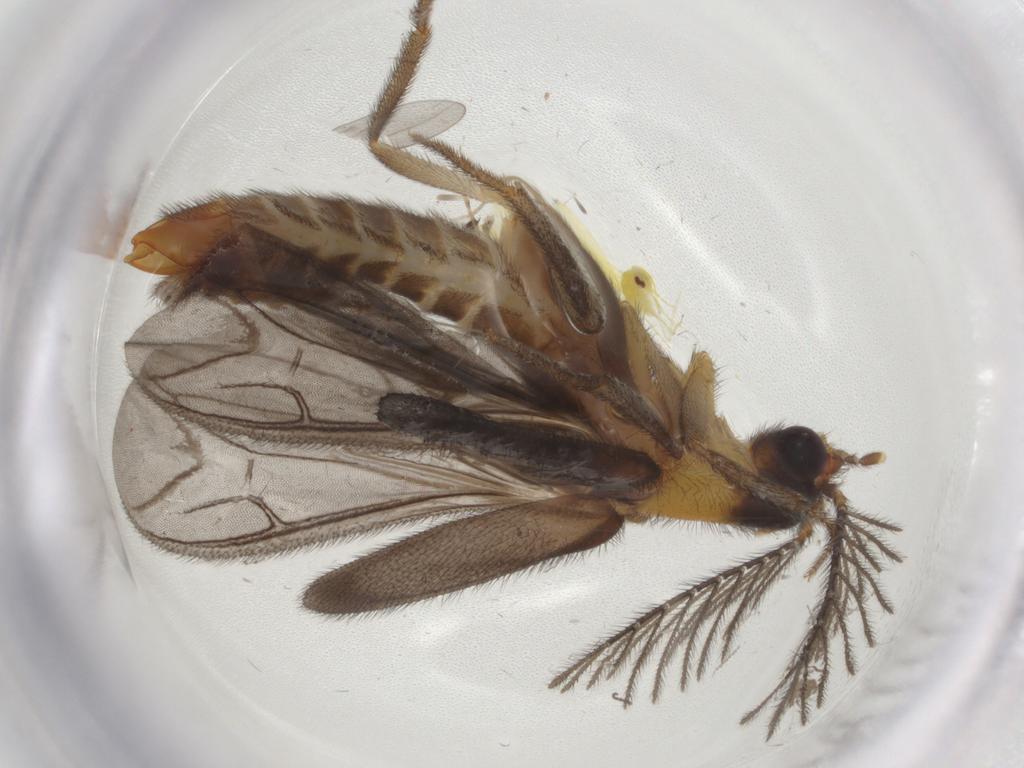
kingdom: Animalia
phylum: Arthropoda
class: Insecta
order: Hemiptera
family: Aleyrodidae
